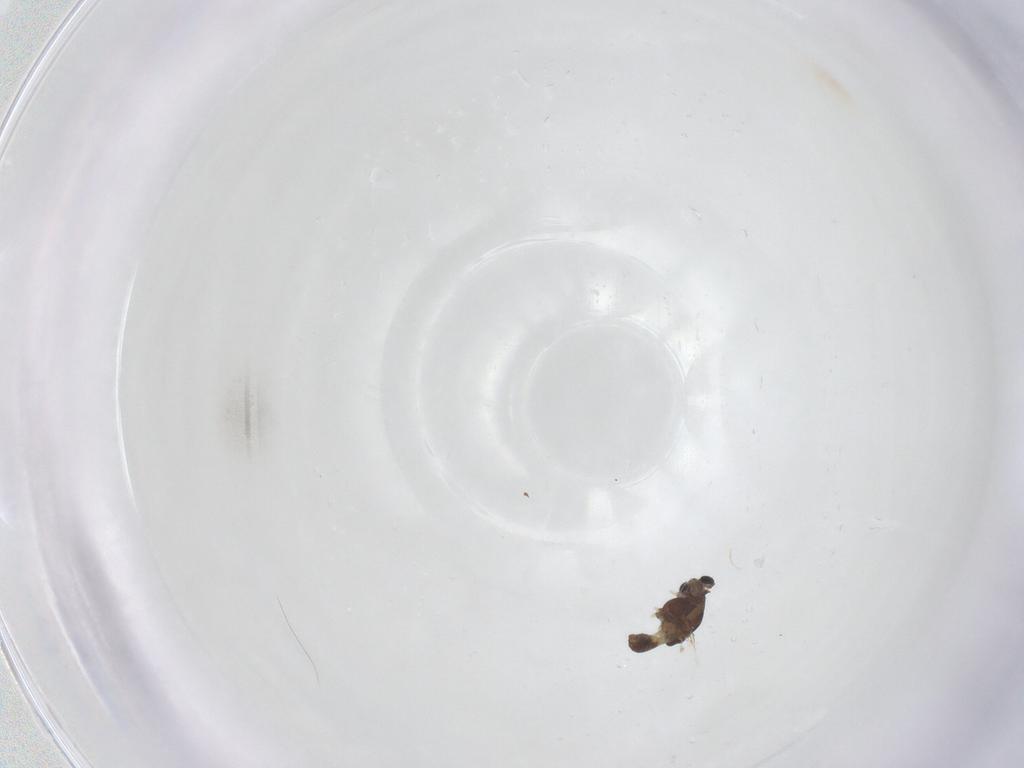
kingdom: Animalia
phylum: Arthropoda
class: Insecta
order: Diptera
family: Chironomidae
